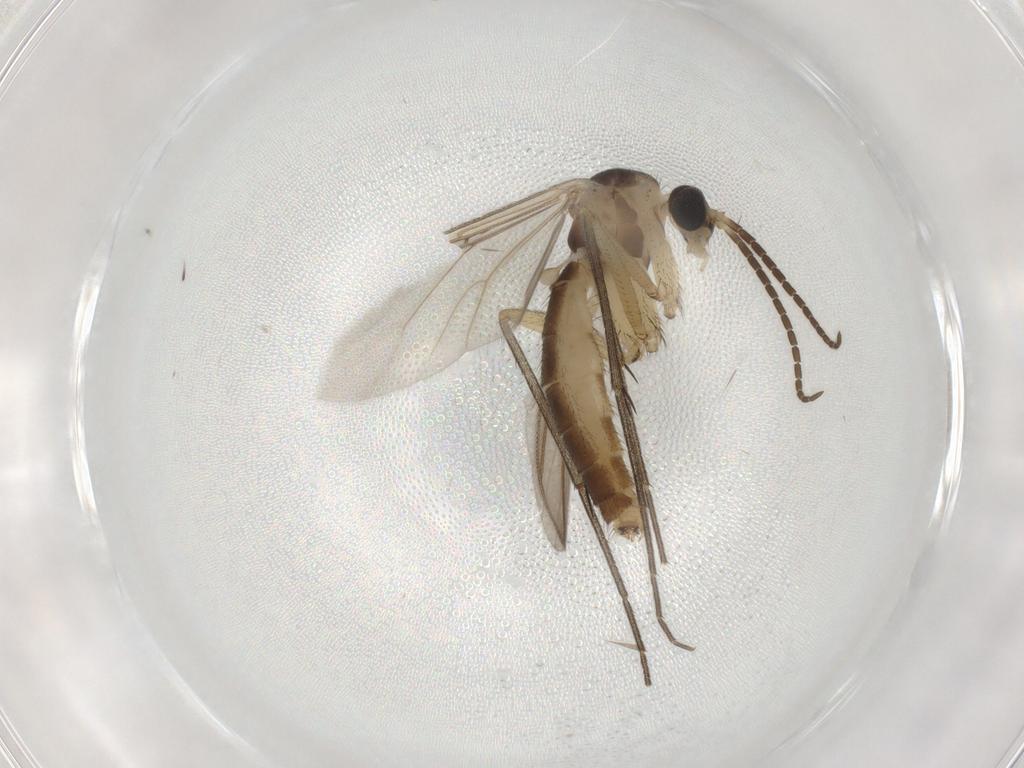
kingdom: Animalia
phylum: Arthropoda
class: Insecta
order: Diptera
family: Mycetophilidae
